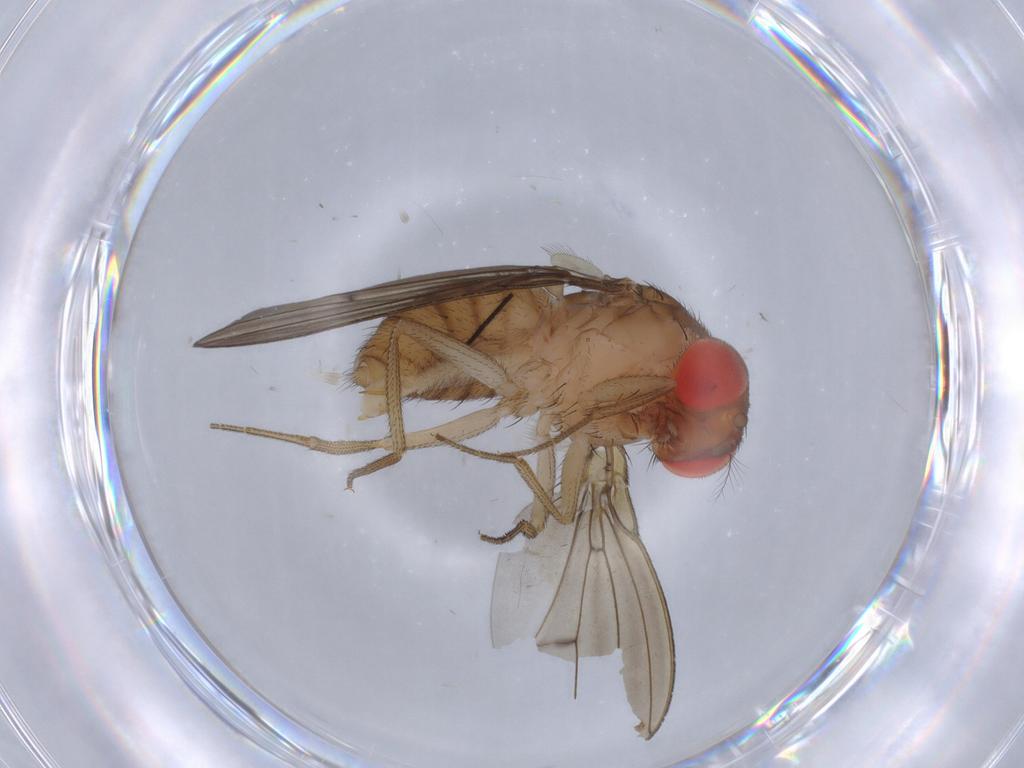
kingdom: Animalia
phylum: Arthropoda
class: Insecta
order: Diptera
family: Drosophilidae
